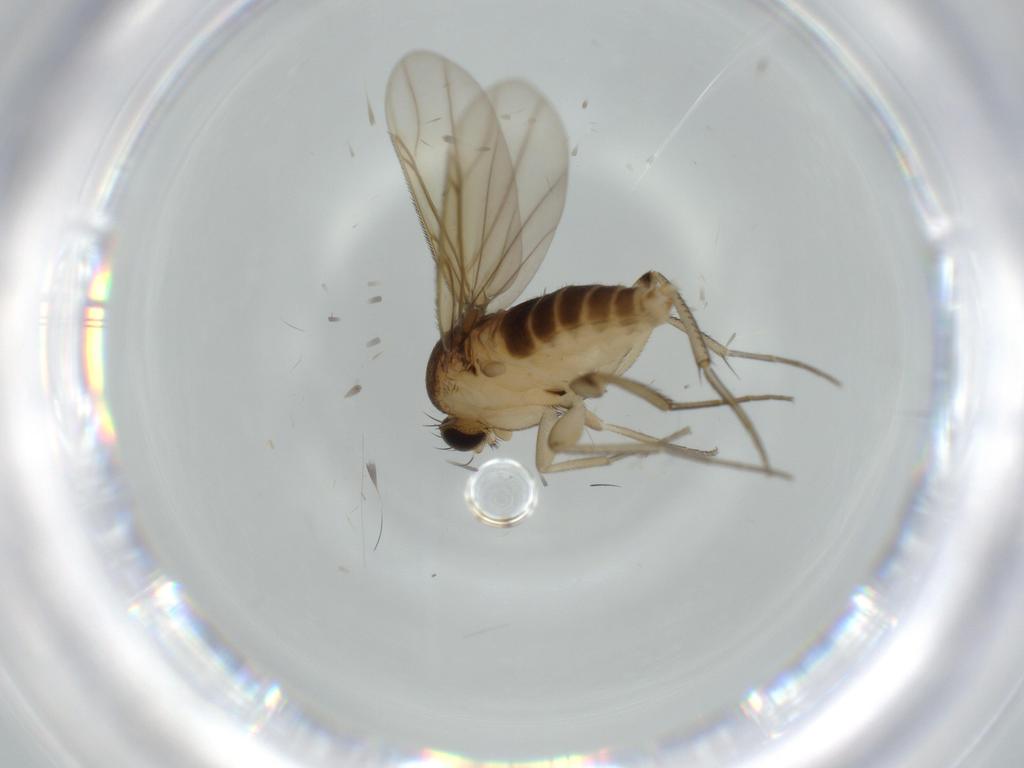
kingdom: Animalia
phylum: Arthropoda
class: Insecta
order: Diptera
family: Phoridae
